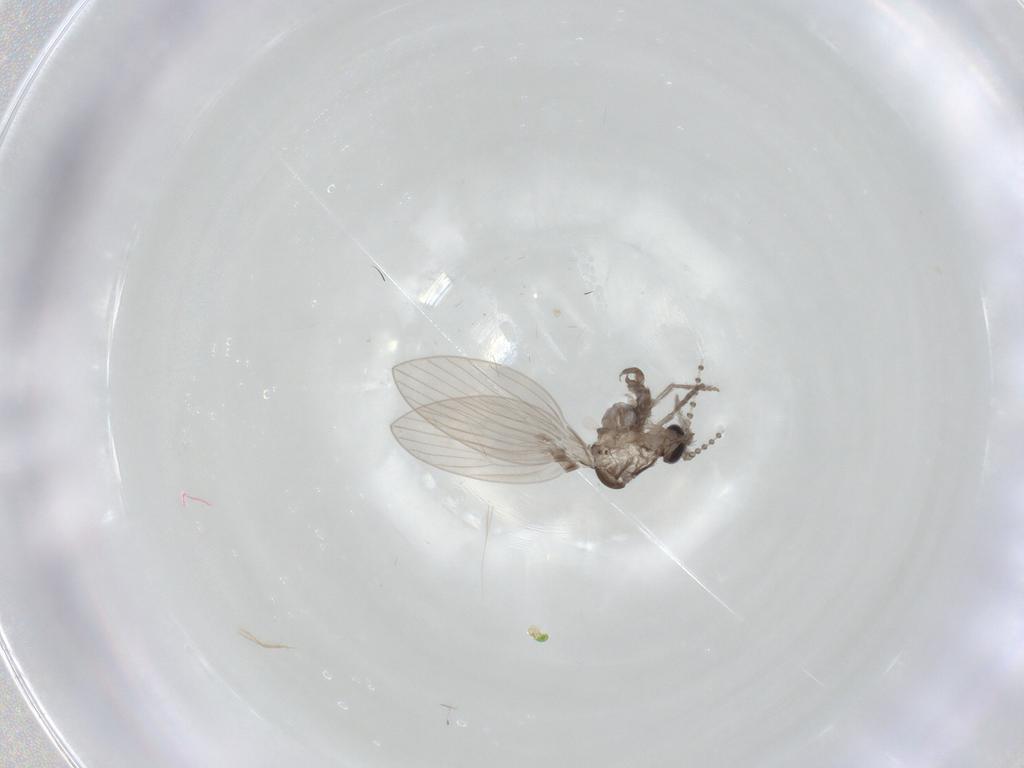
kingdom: Animalia
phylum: Arthropoda
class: Insecta
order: Diptera
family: Psychodidae
